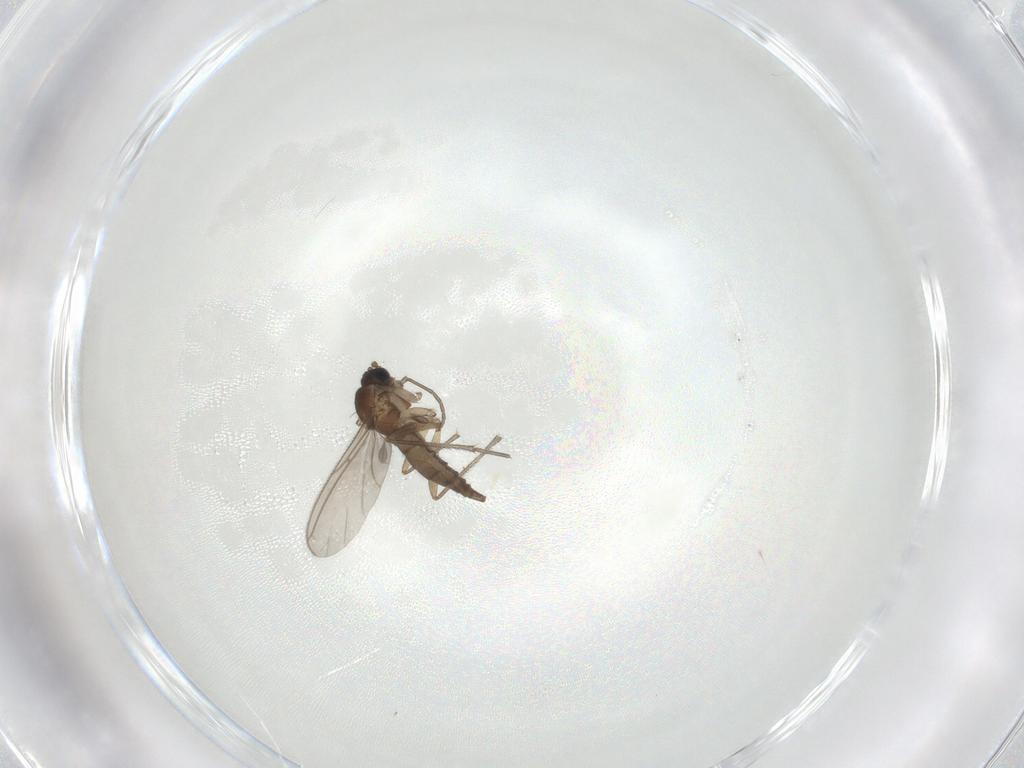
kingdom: Animalia
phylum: Arthropoda
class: Insecta
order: Diptera
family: Sciaridae
